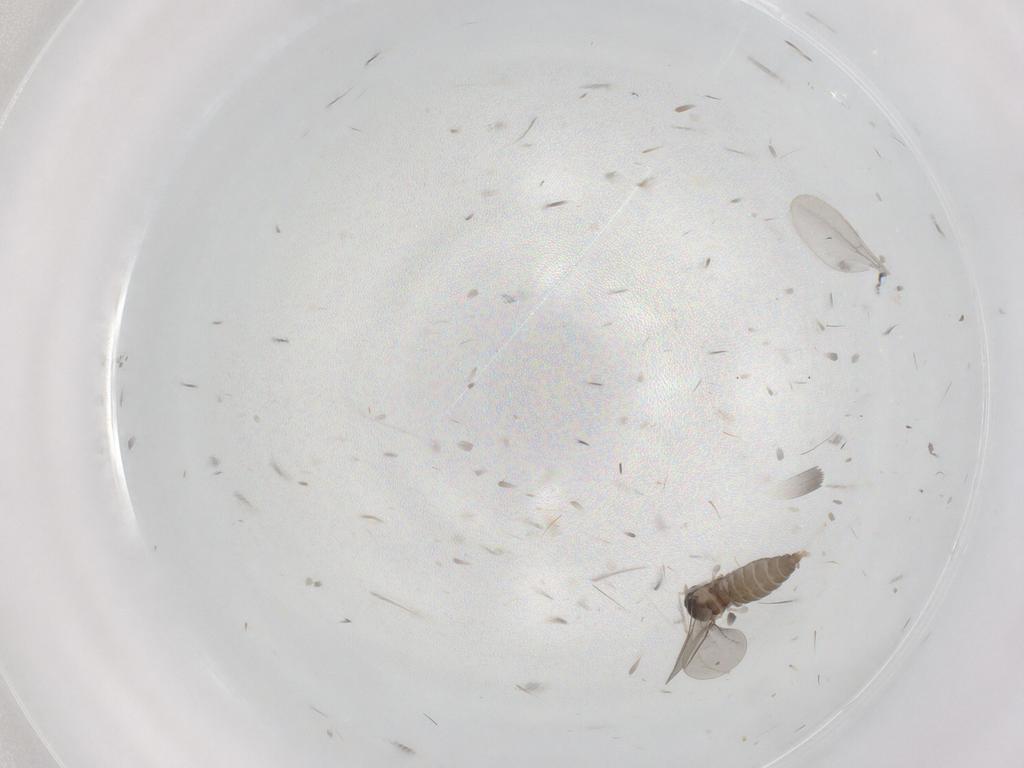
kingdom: Animalia
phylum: Arthropoda
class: Insecta
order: Diptera
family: Cecidomyiidae
